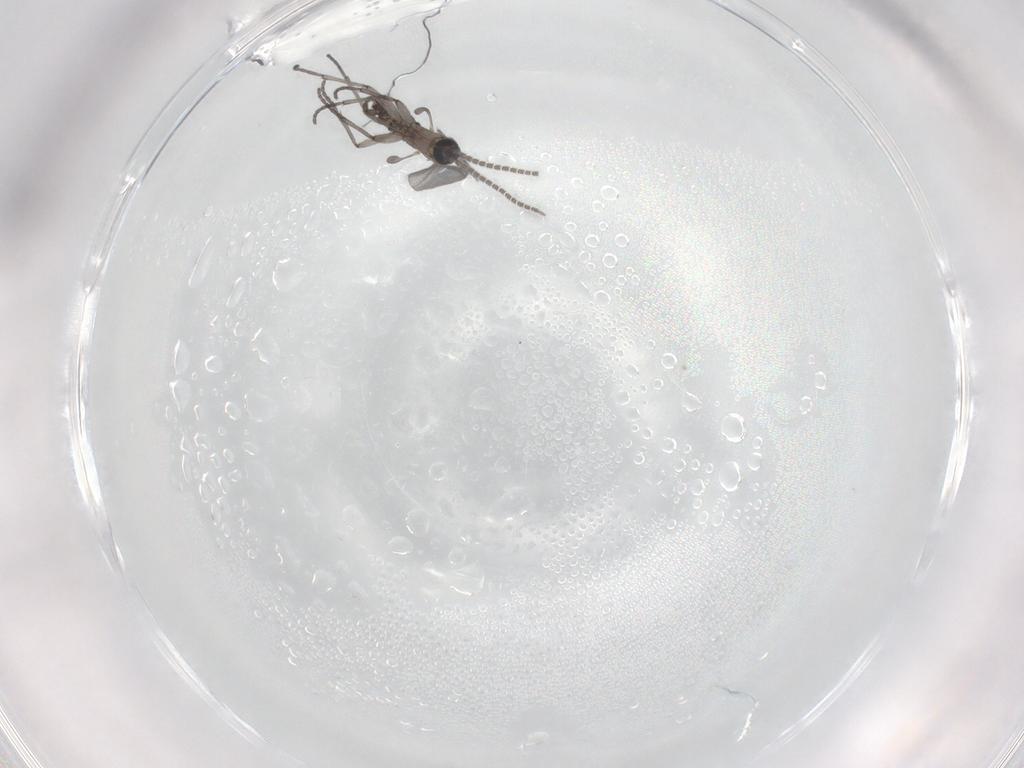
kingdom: Animalia
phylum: Arthropoda
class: Insecta
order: Diptera
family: Sciaridae
